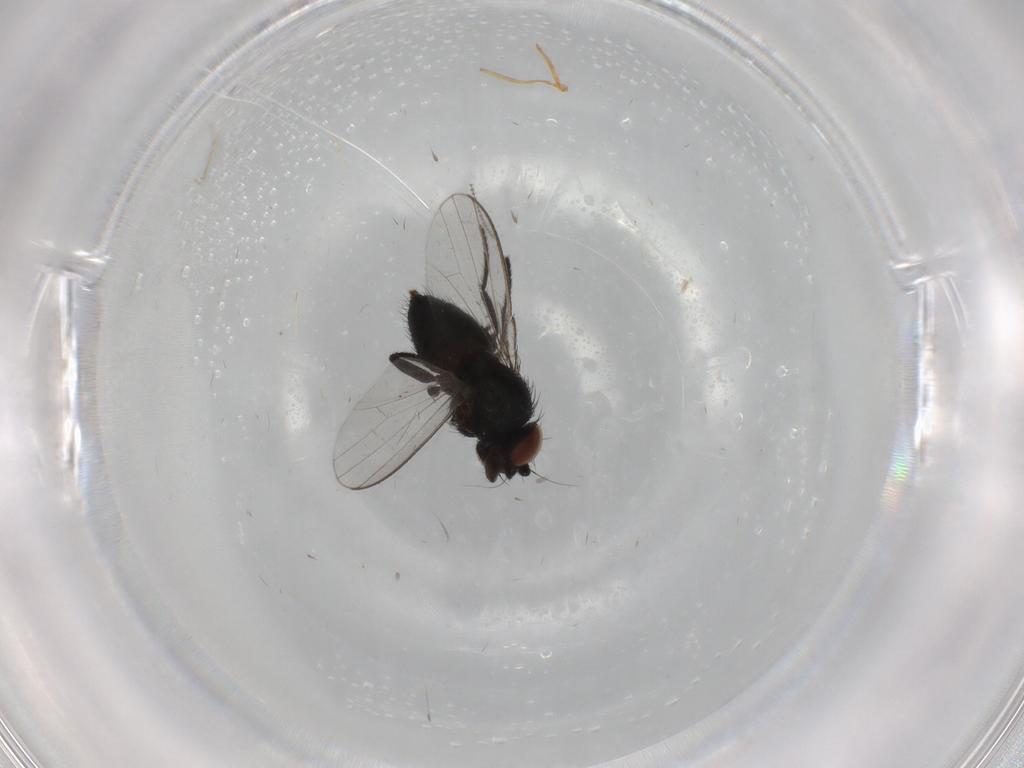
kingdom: Animalia
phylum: Arthropoda
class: Insecta
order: Diptera
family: Milichiidae
